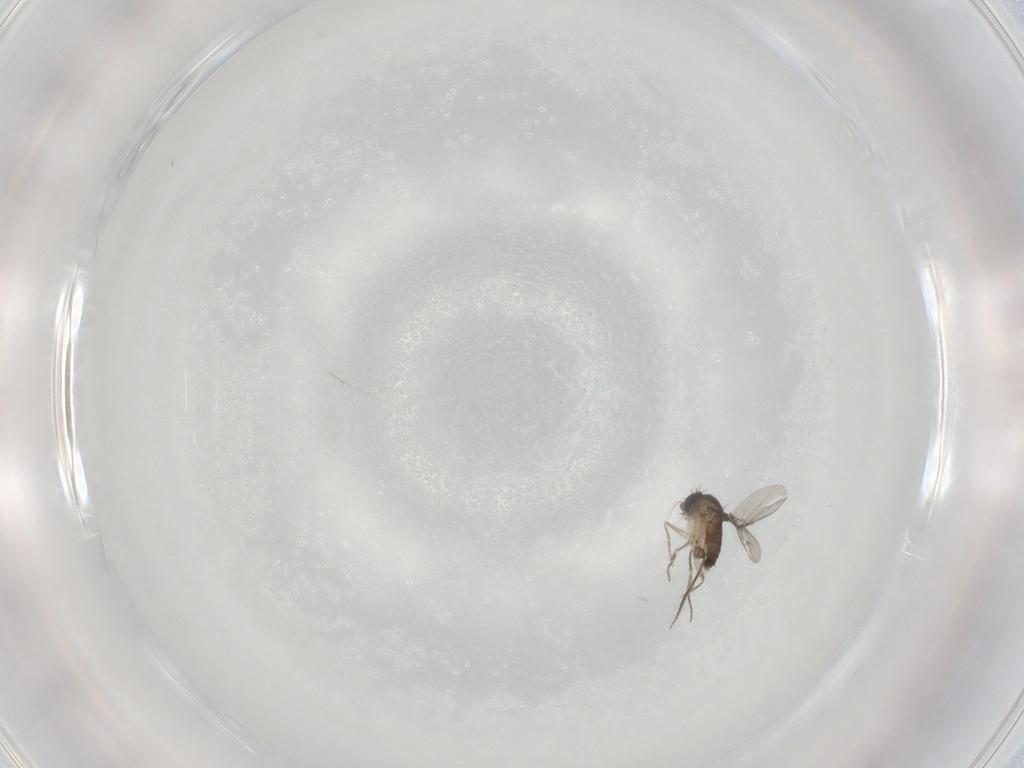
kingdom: Animalia
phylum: Arthropoda
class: Insecta
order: Diptera
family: Phoridae
